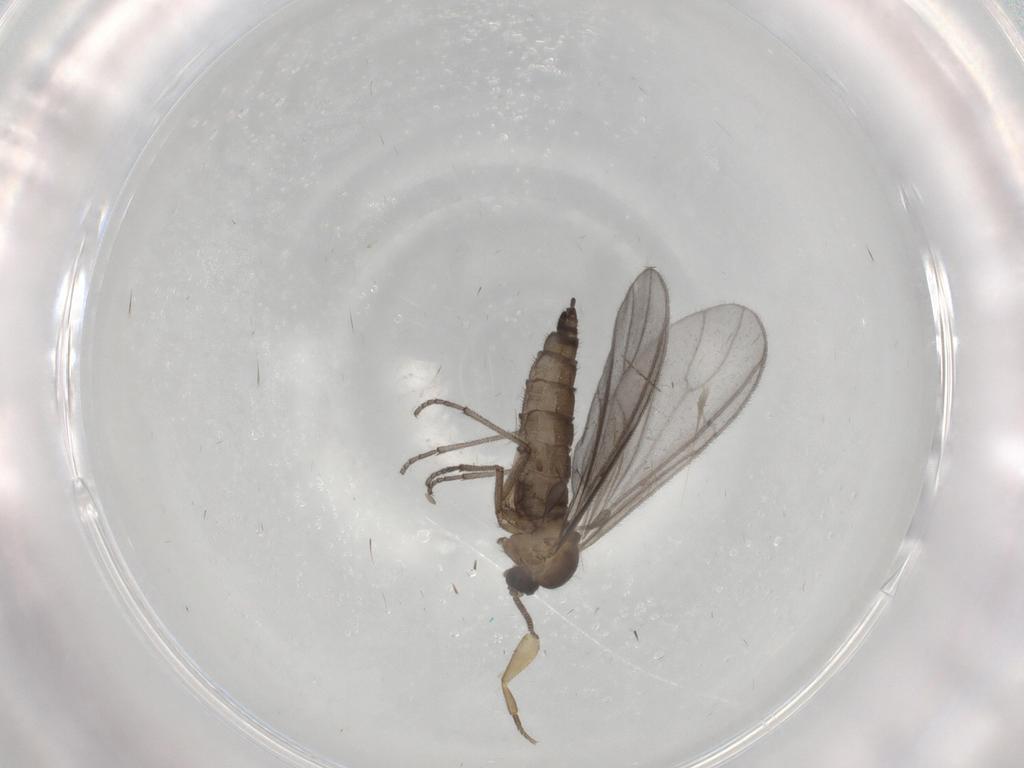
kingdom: Animalia
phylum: Arthropoda
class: Insecta
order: Diptera
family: Sciaridae
